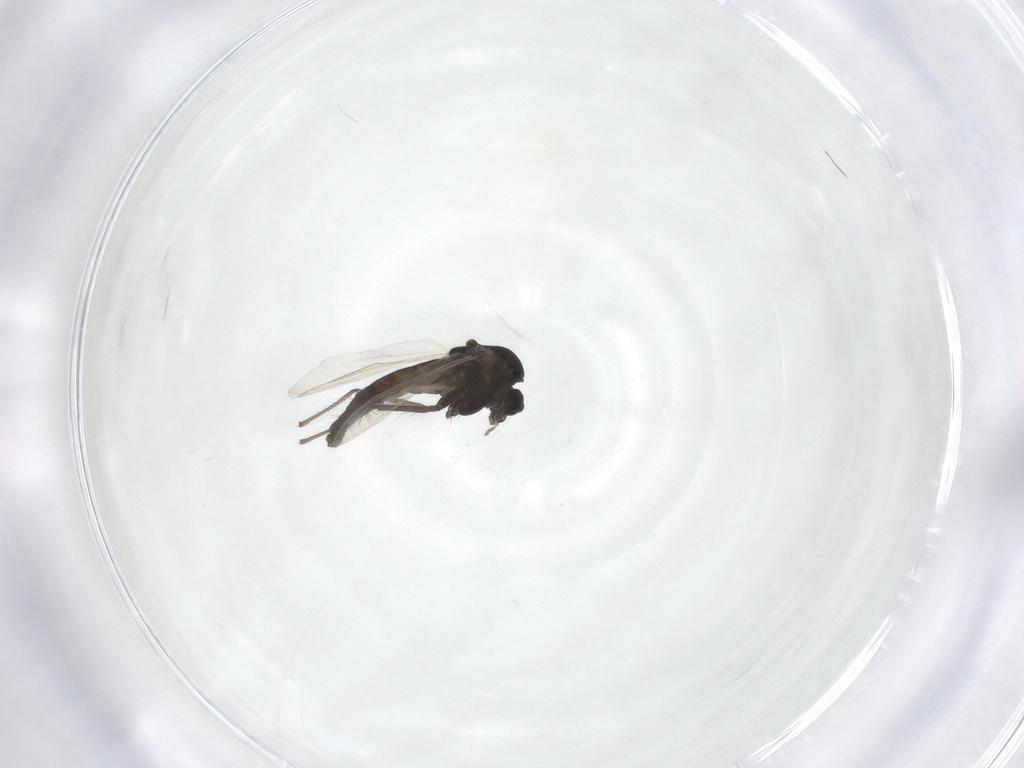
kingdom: Animalia
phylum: Arthropoda
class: Insecta
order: Diptera
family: Chironomidae
